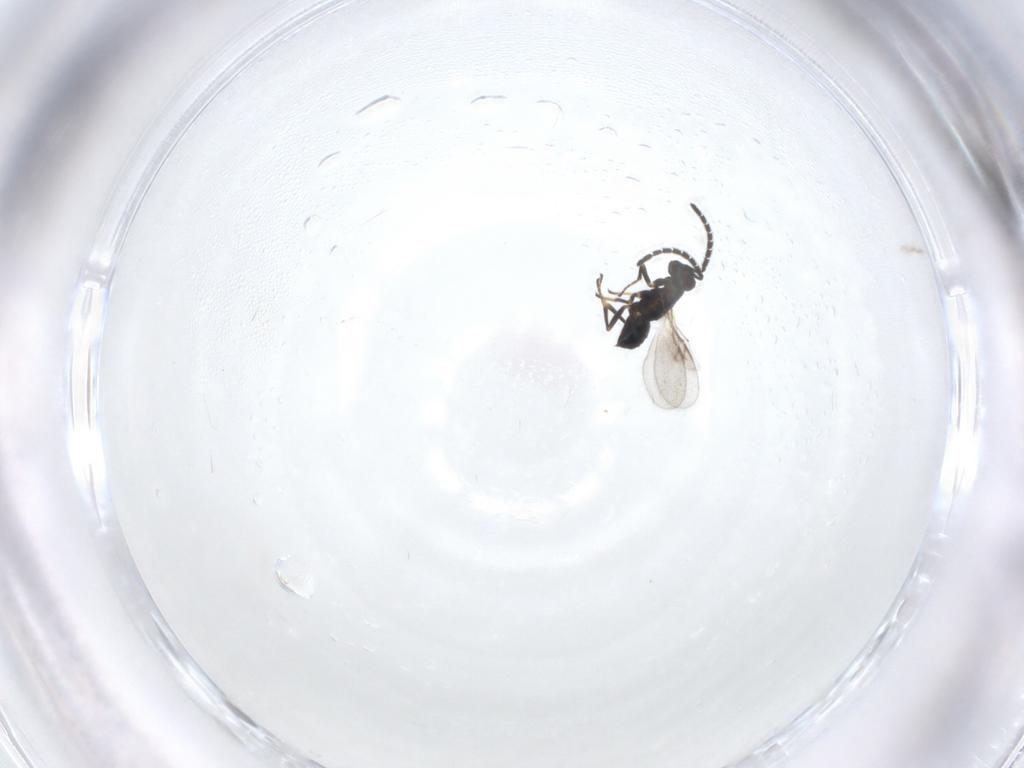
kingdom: Animalia
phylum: Arthropoda
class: Insecta
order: Hymenoptera
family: Encyrtidae
